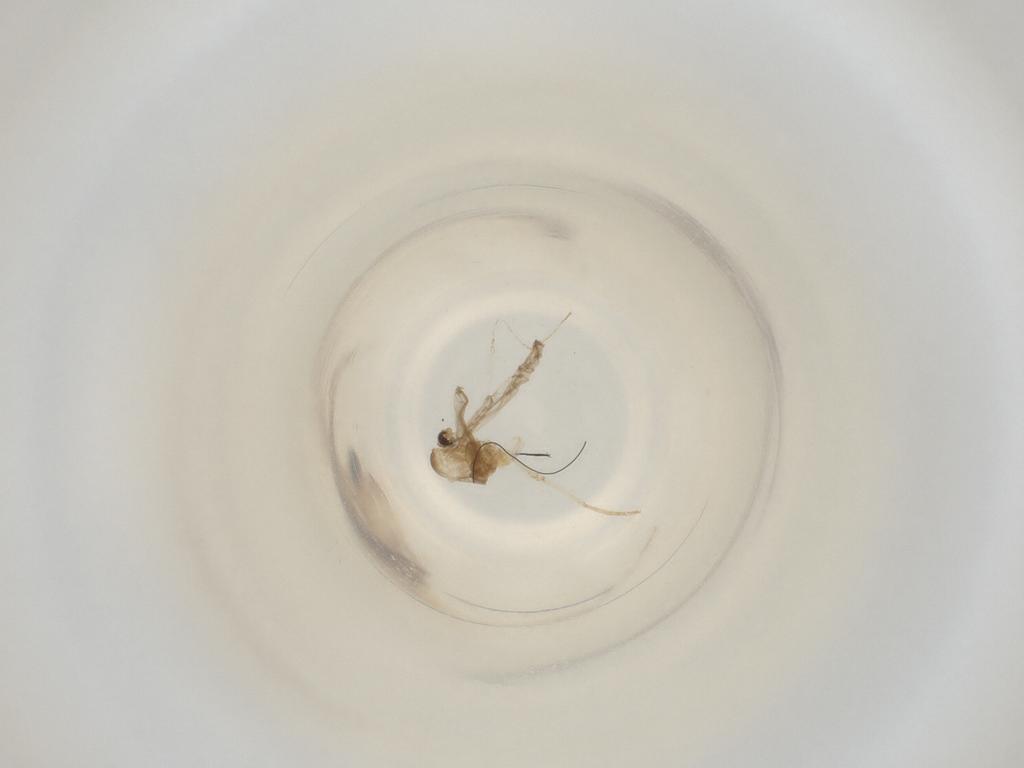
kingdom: Animalia
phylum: Arthropoda
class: Insecta
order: Diptera
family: Cecidomyiidae
